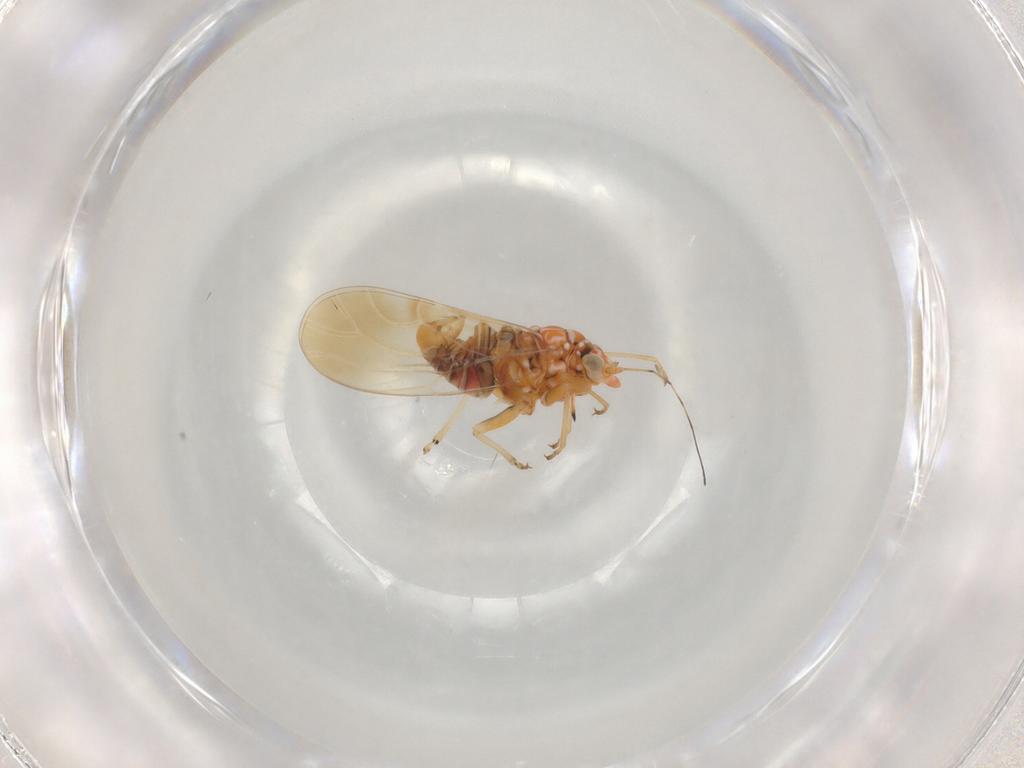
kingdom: Animalia
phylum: Arthropoda
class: Insecta
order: Hemiptera
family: Psyllidae
